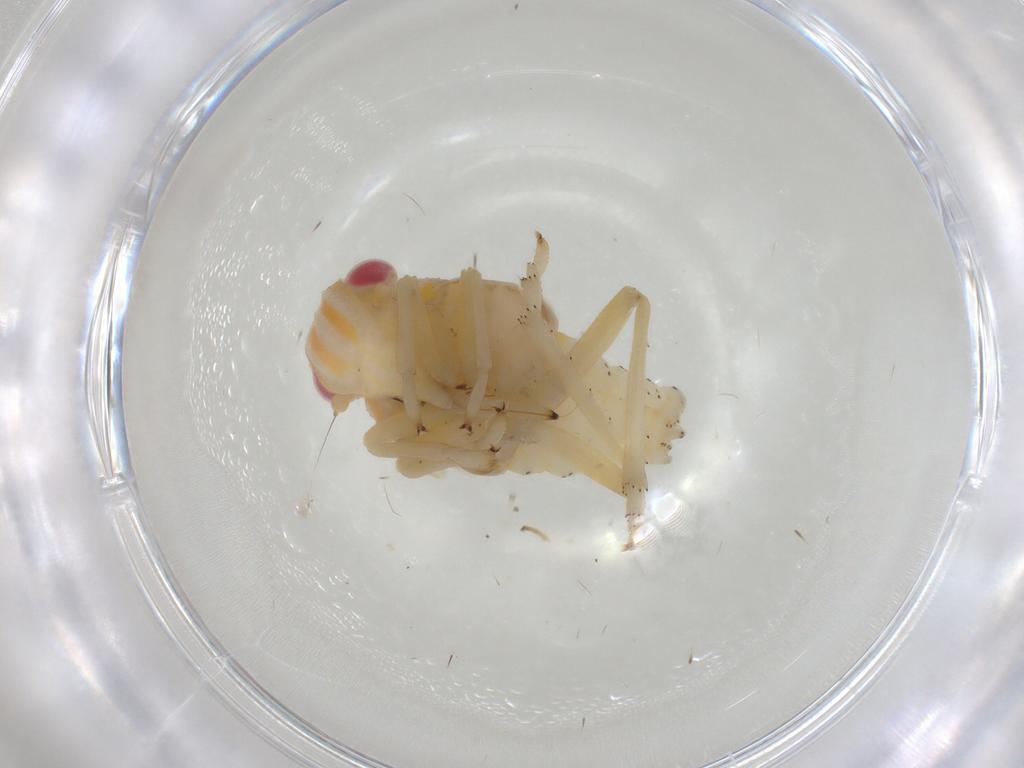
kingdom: Animalia
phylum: Arthropoda
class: Insecta
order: Hemiptera
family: Tropiduchidae
